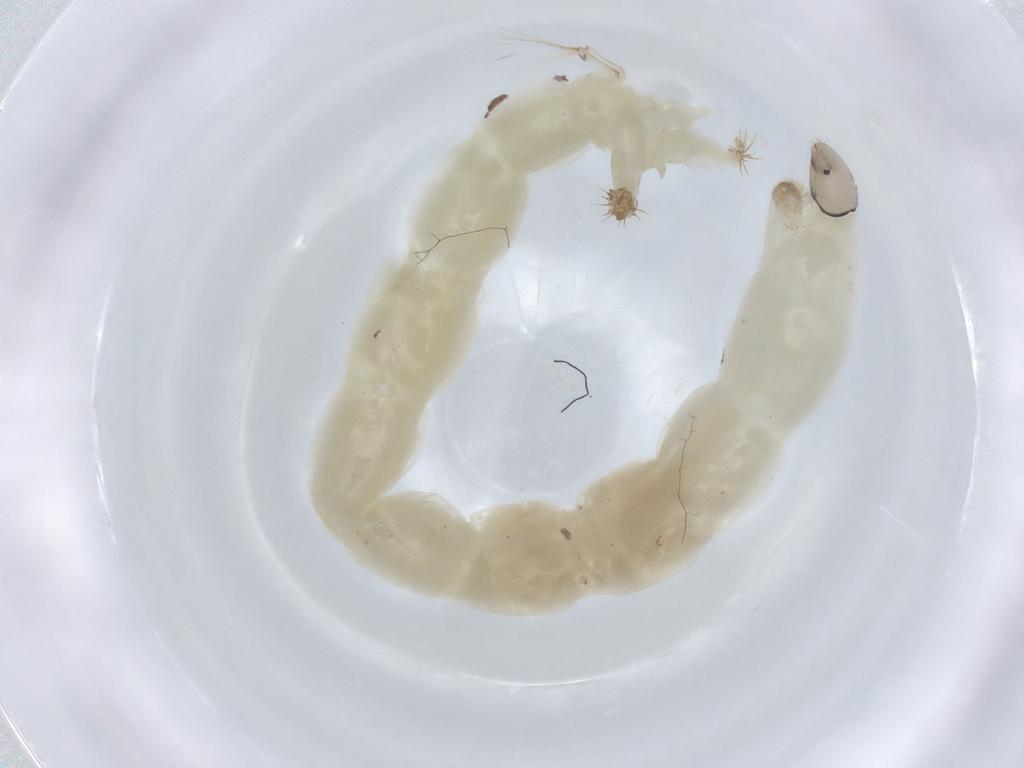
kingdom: Animalia
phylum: Arthropoda
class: Insecta
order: Diptera
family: Chironomidae
